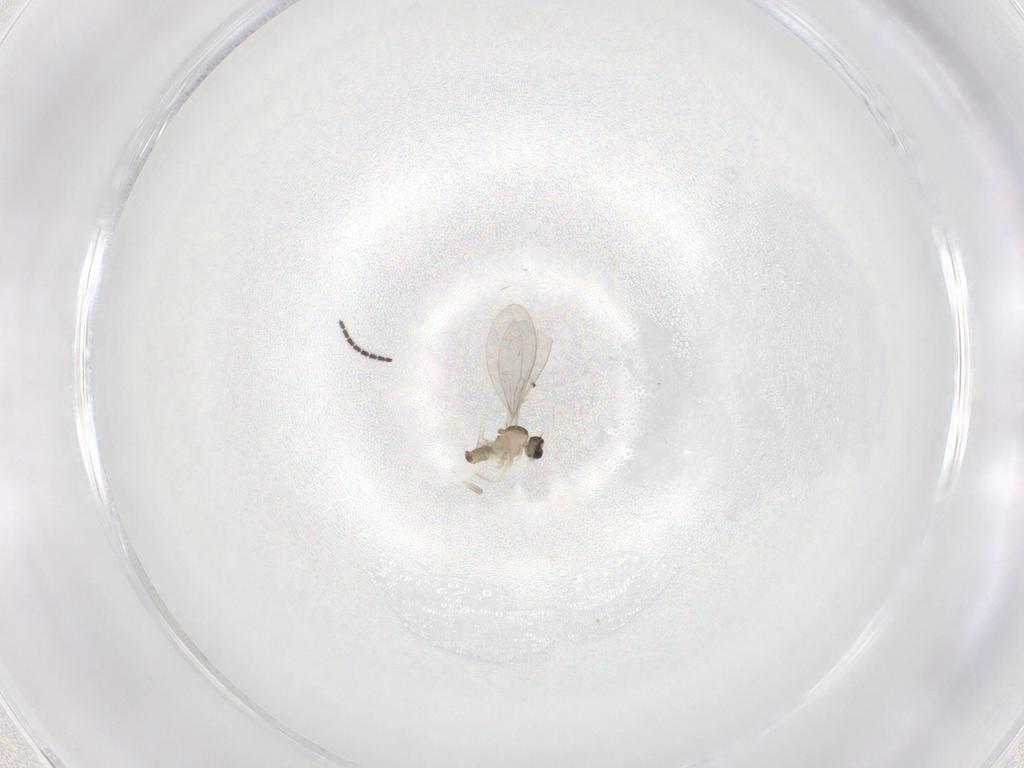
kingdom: Animalia
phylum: Arthropoda
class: Insecta
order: Diptera
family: Cecidomyiidae
